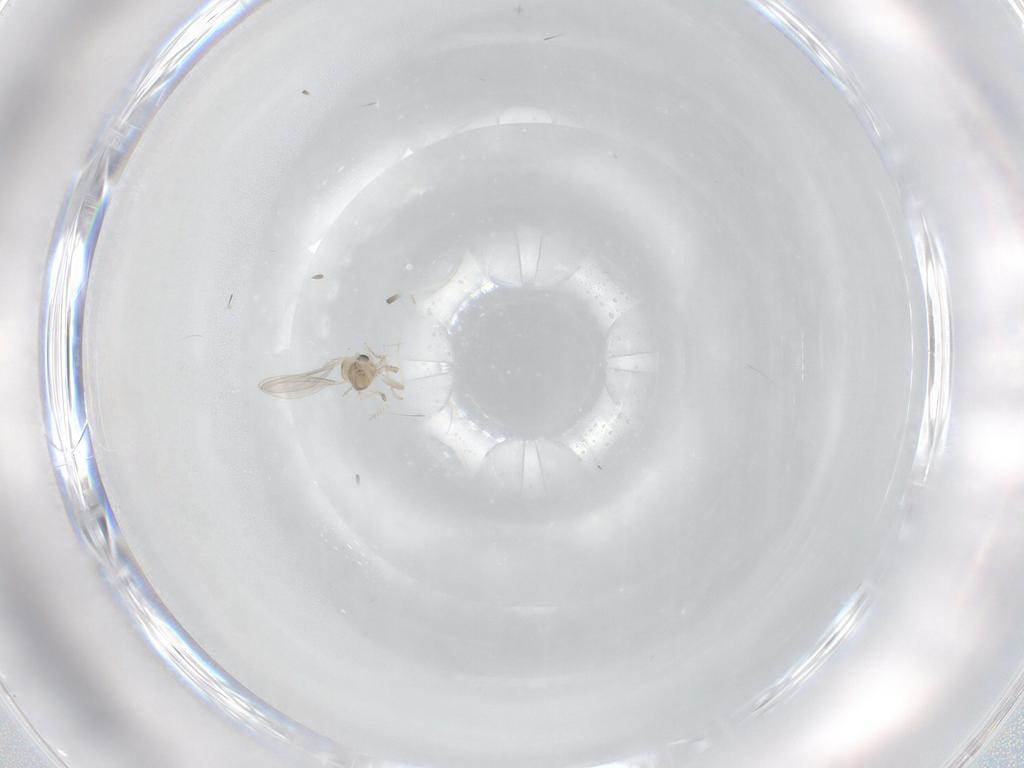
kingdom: Animalia
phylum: Arthropoda
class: Insecta
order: Diptera
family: Cecidomyiidae
